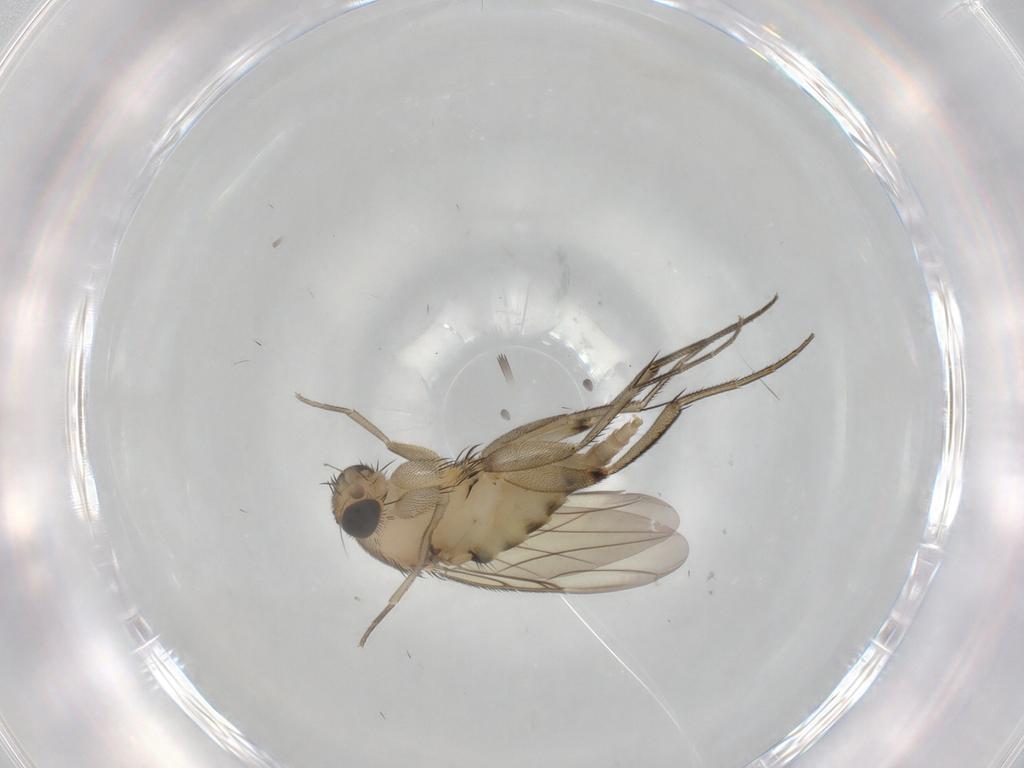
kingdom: Animalia
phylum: Arthropoda
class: Insecta
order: Diptera
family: Phoridae
